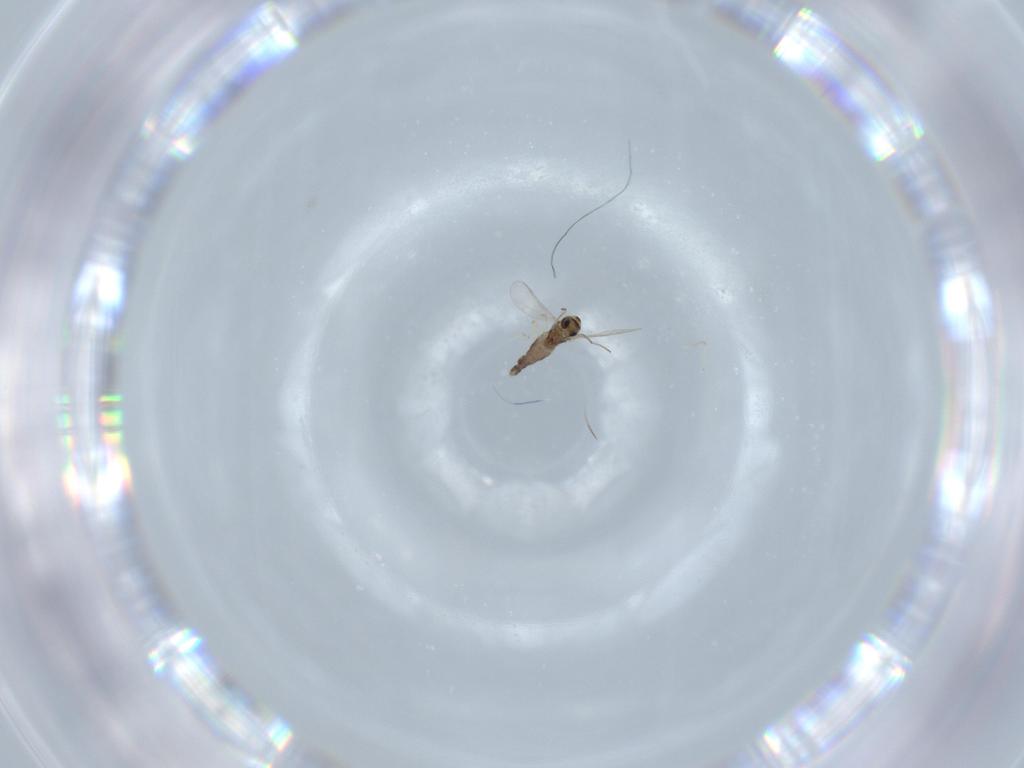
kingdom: Animalia
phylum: Arthropoda
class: Insecta
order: Diptera
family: Chironomidae
